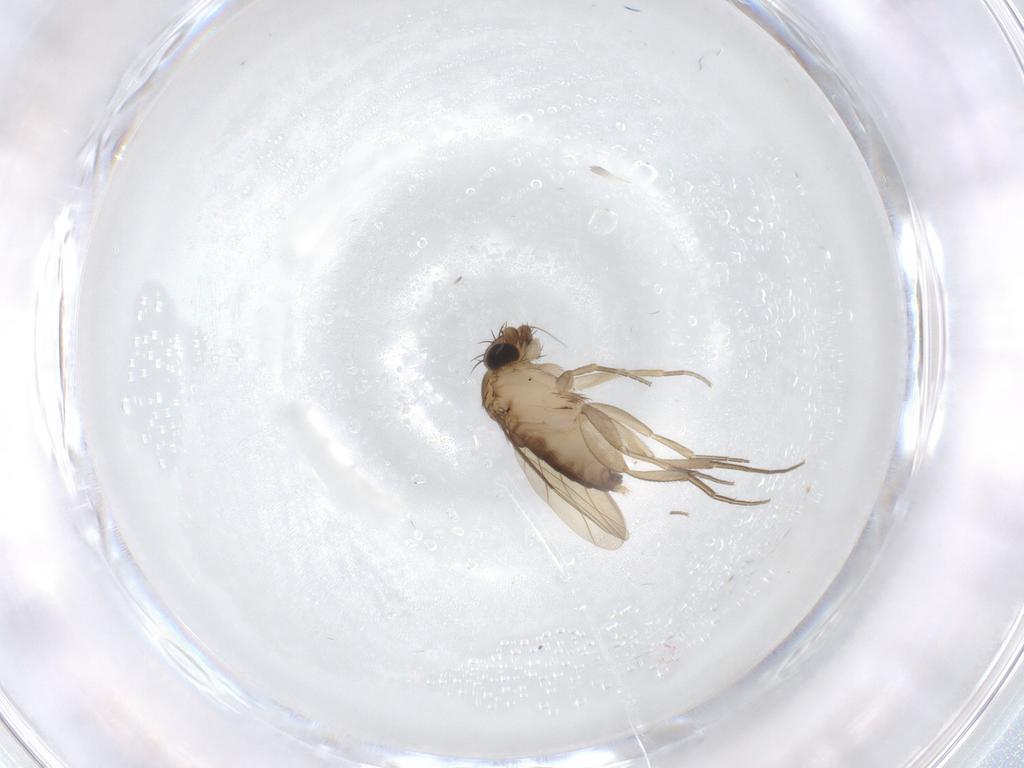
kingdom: Animalia
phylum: Arthropoda
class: Insecta
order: Diptera
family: Phoridae
